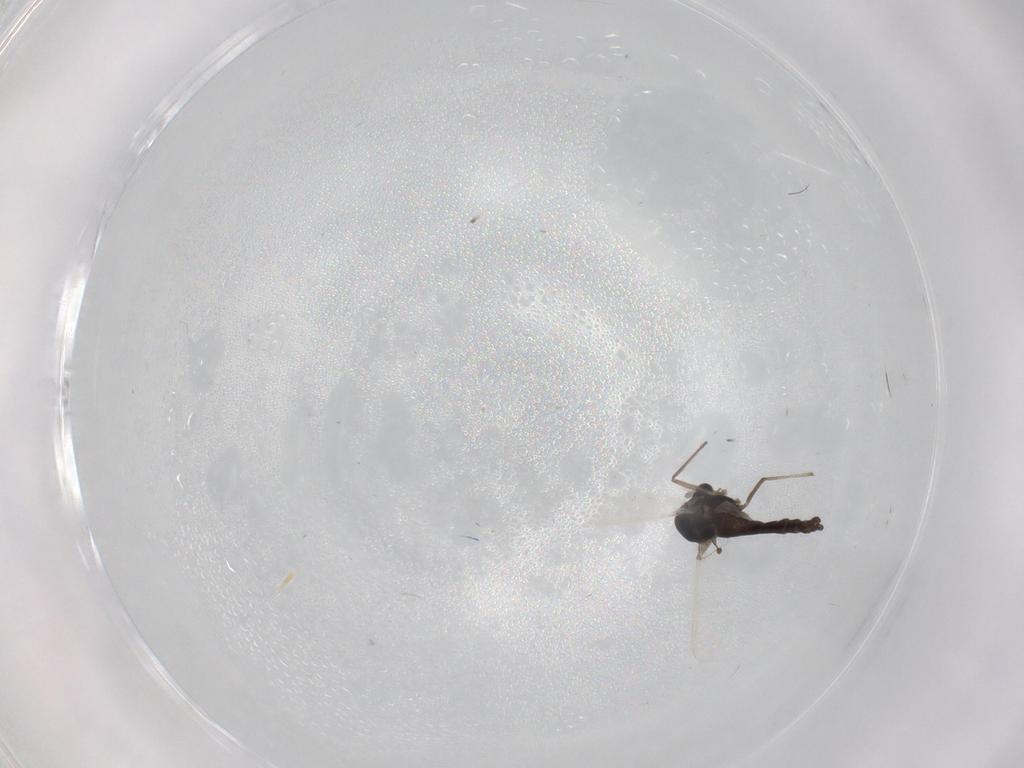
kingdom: Animalia
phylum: Arthropoda
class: Insecta
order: Diptera
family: Chironomidae
